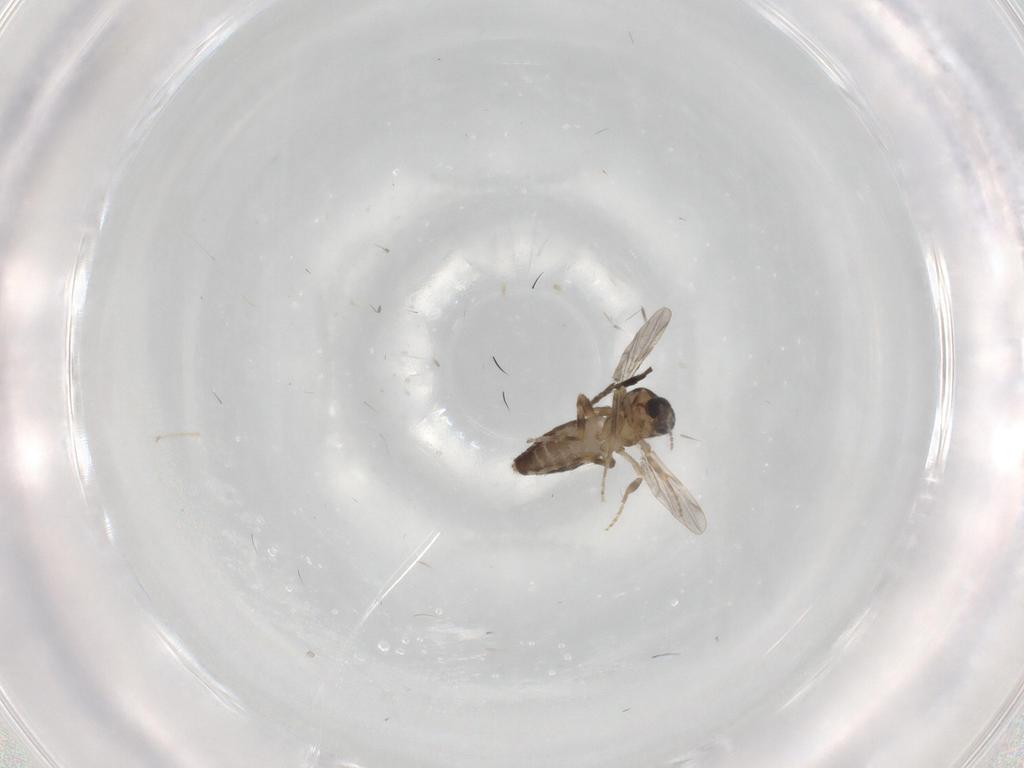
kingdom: Animalia
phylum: Arthropoda
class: Insecta
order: Diptera
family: Ceratopogonidae
